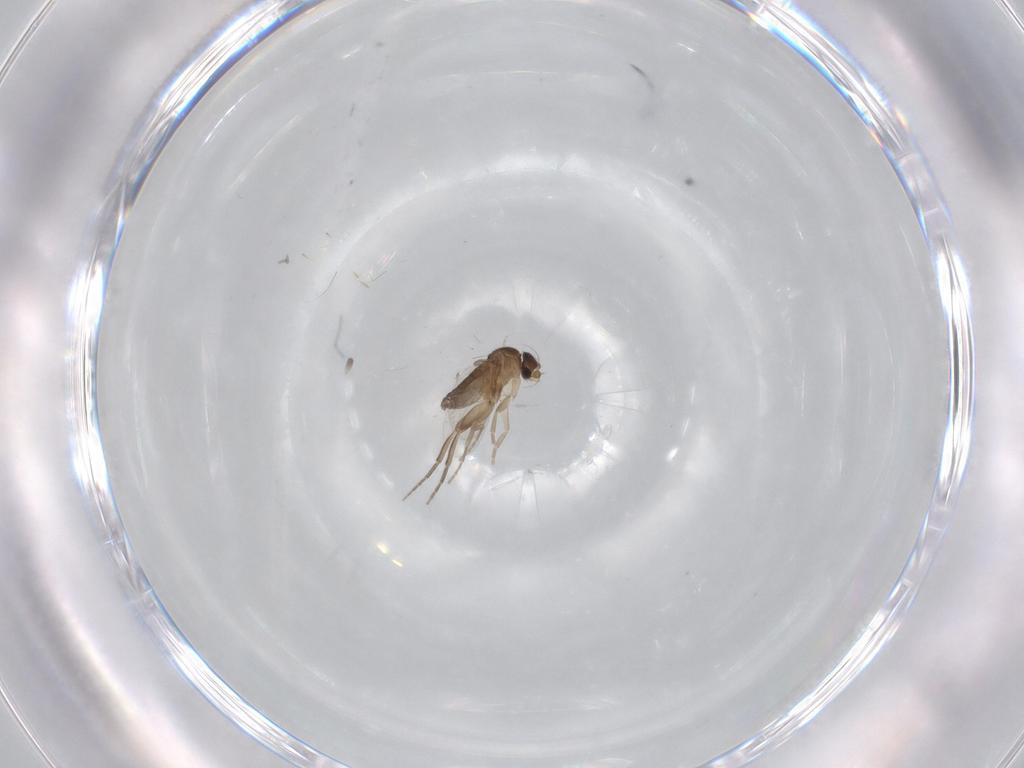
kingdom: Animalia
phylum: Arthropoda
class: Insecta
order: Diptera
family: Phoridae
